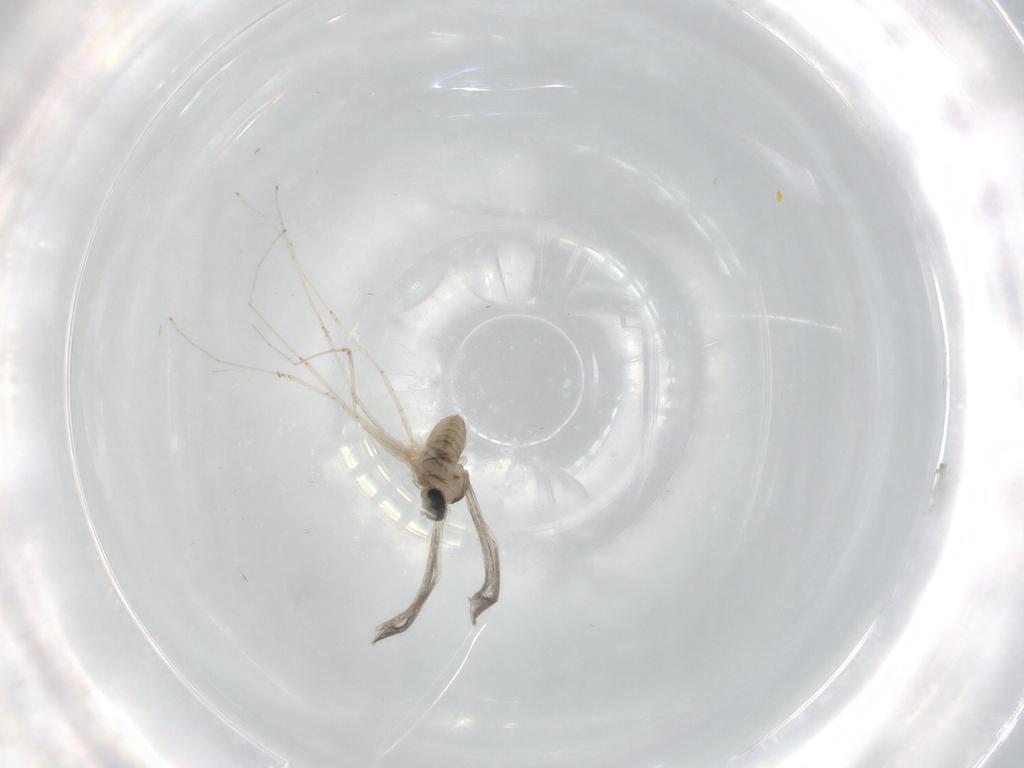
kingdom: Animalia
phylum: Arthropoda
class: Insecta
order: Diptera
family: Cecidomyiidae
